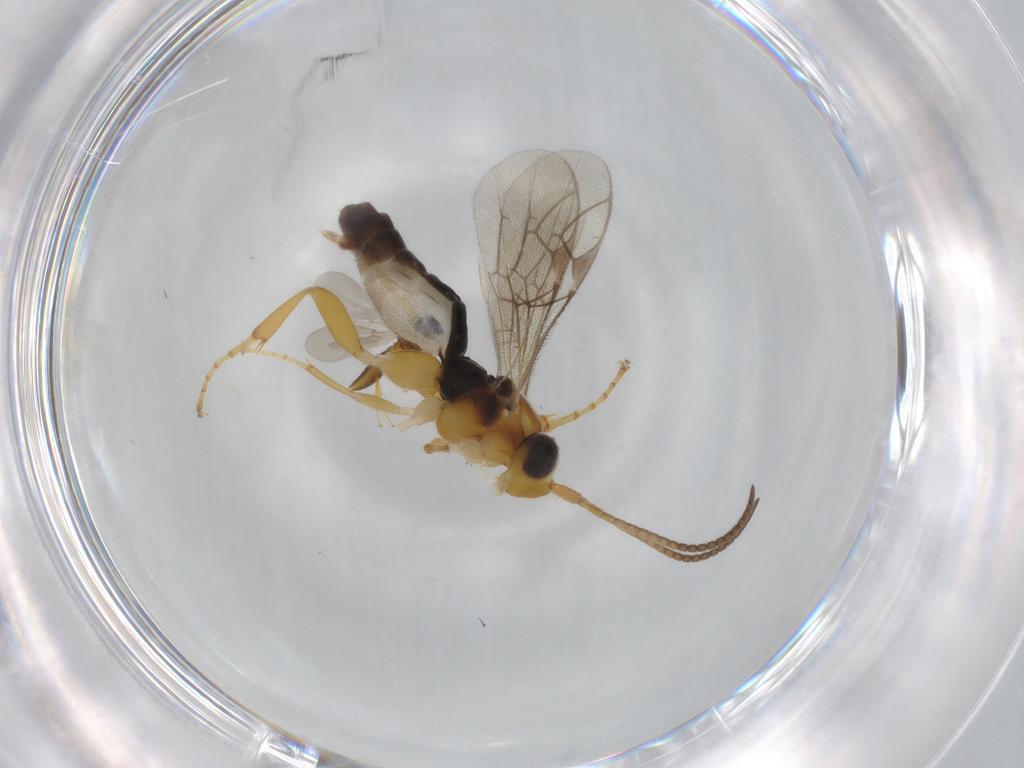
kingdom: Animalia
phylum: Arthropoda
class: Insecta
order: Hymenoptera
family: Ichneumonidae
